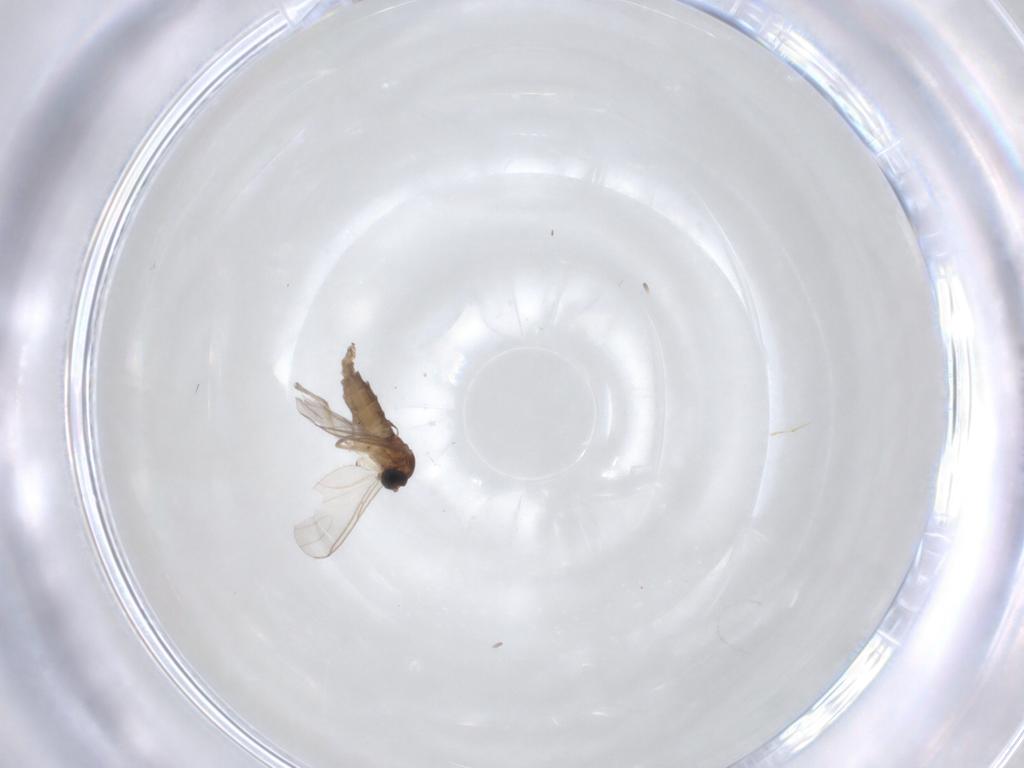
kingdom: Animalia
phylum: Arthropoda
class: Insecta
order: Diptera
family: Sciaridae
